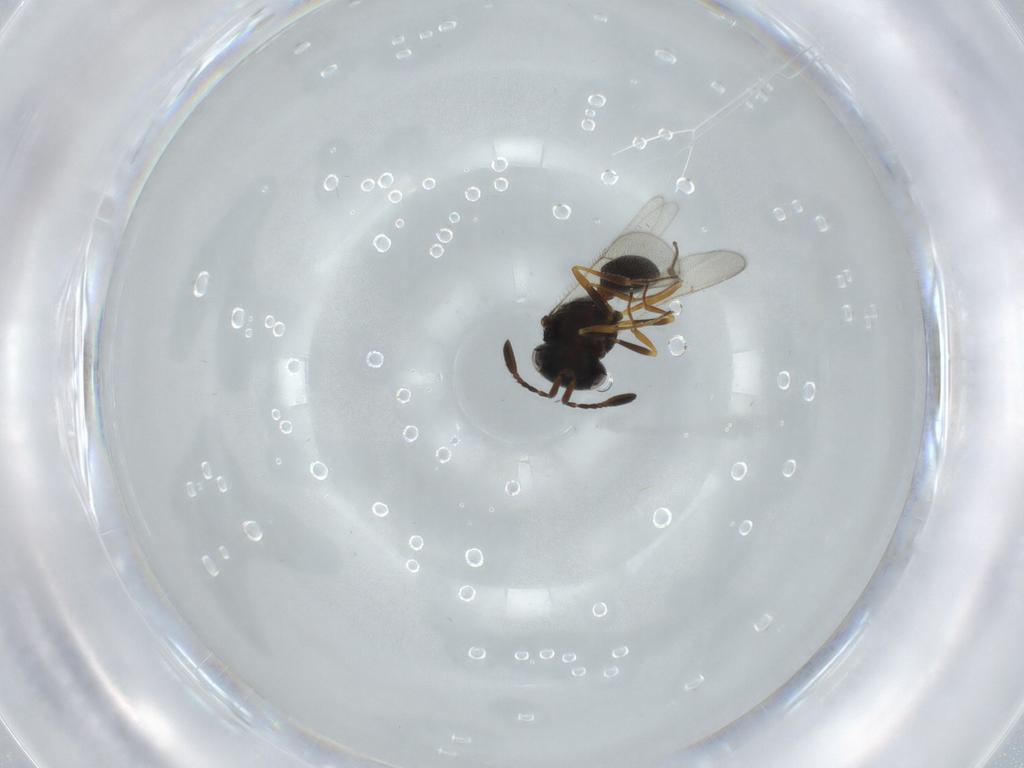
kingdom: Animalia
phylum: Arthropoda
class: Insecta
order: Hymenoptera
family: Scelionidae
